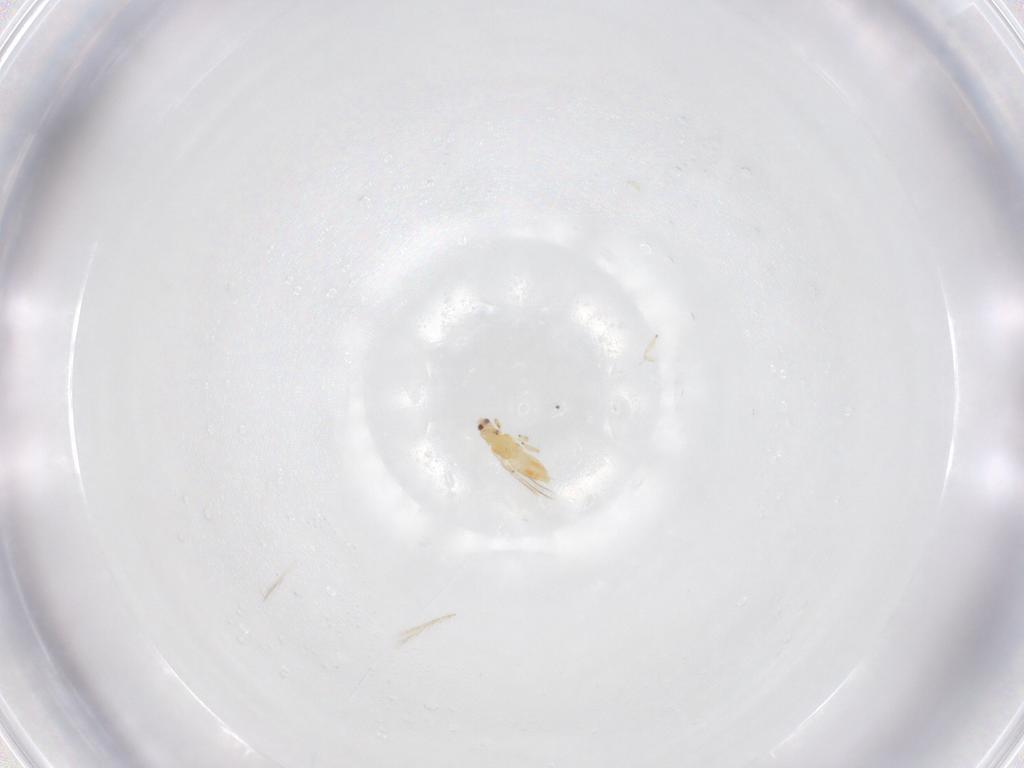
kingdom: Animalia
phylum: Arthropoda
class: Insecta
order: Thysanoptera
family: Thripidae
